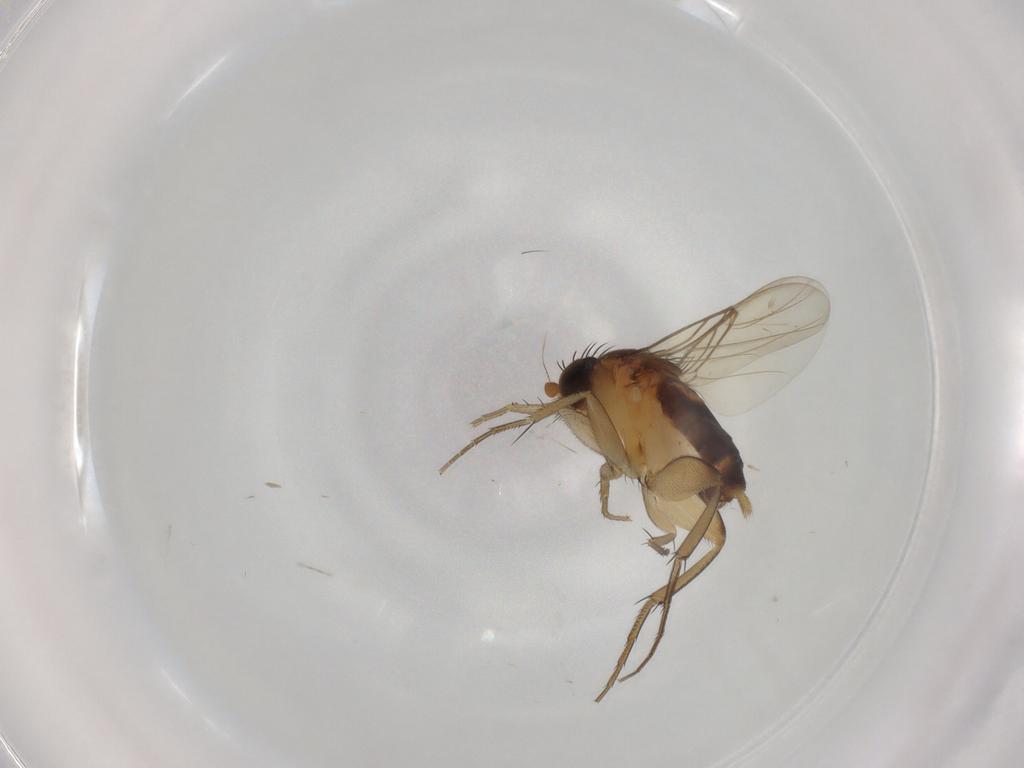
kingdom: Animalia
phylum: Arthropoda
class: Insecta
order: Diptera
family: Phoridae
